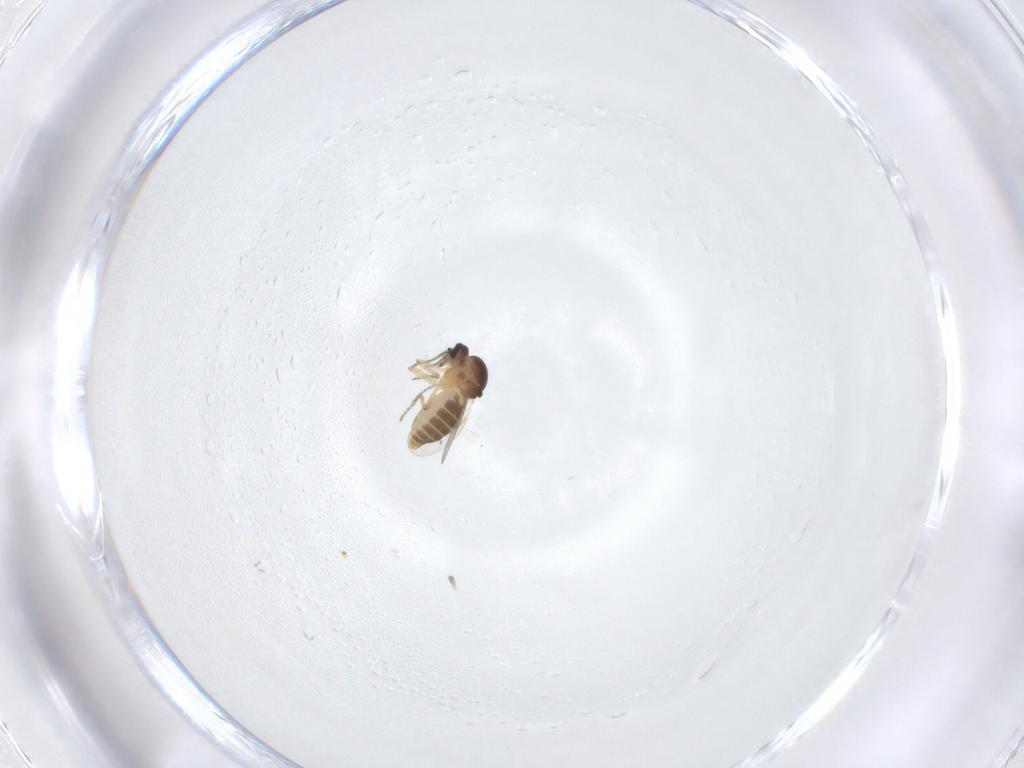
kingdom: Animalia
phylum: Arthropoda
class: Insecta
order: Diptera
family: Ceratopogonidae
